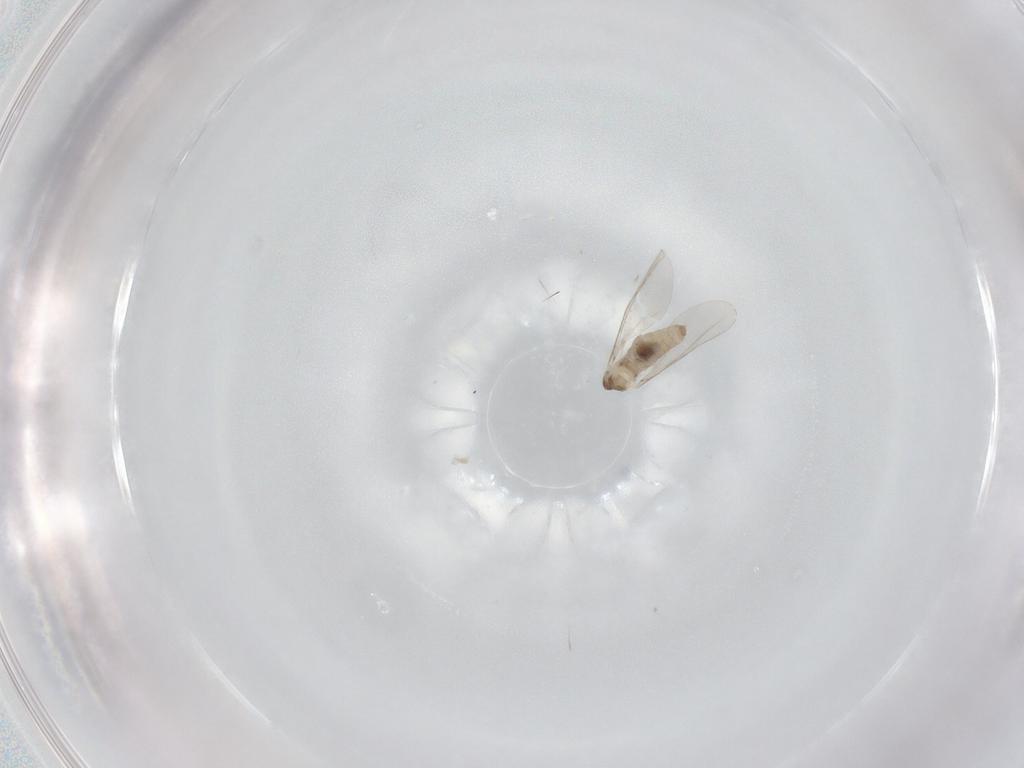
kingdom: Animalia
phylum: Arthropoda
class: Insecta
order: Diptera
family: Cecidomyiidae
